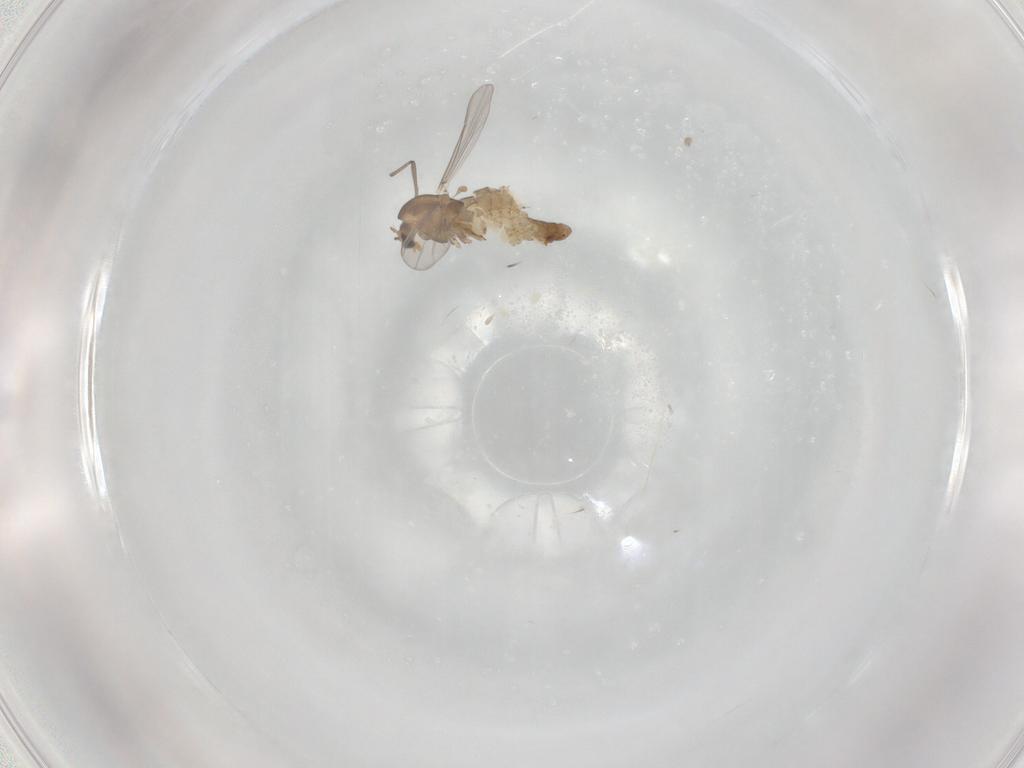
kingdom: Animalia
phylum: Arthropoda
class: Insecta
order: Diptera
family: Chironomidae
